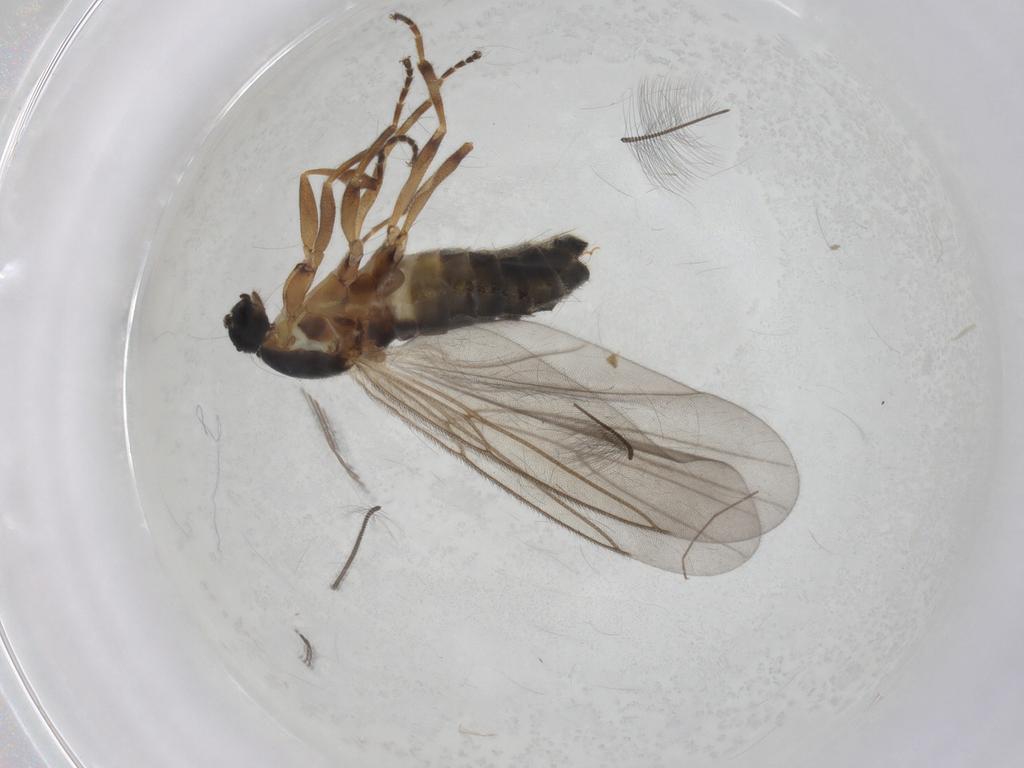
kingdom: Animalia
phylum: Arthropoda
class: Insecta
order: Diptera
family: Scatopsidae
